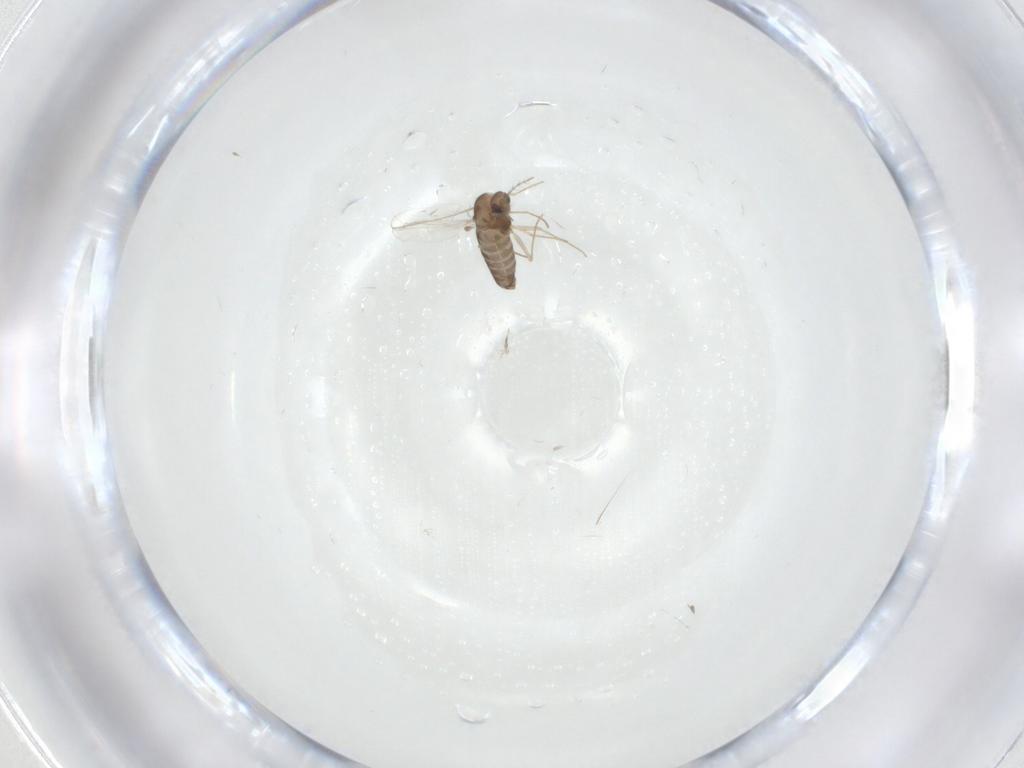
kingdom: Animalia
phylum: Arthropoda
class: Insecta
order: Diptera
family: Chironomidae
